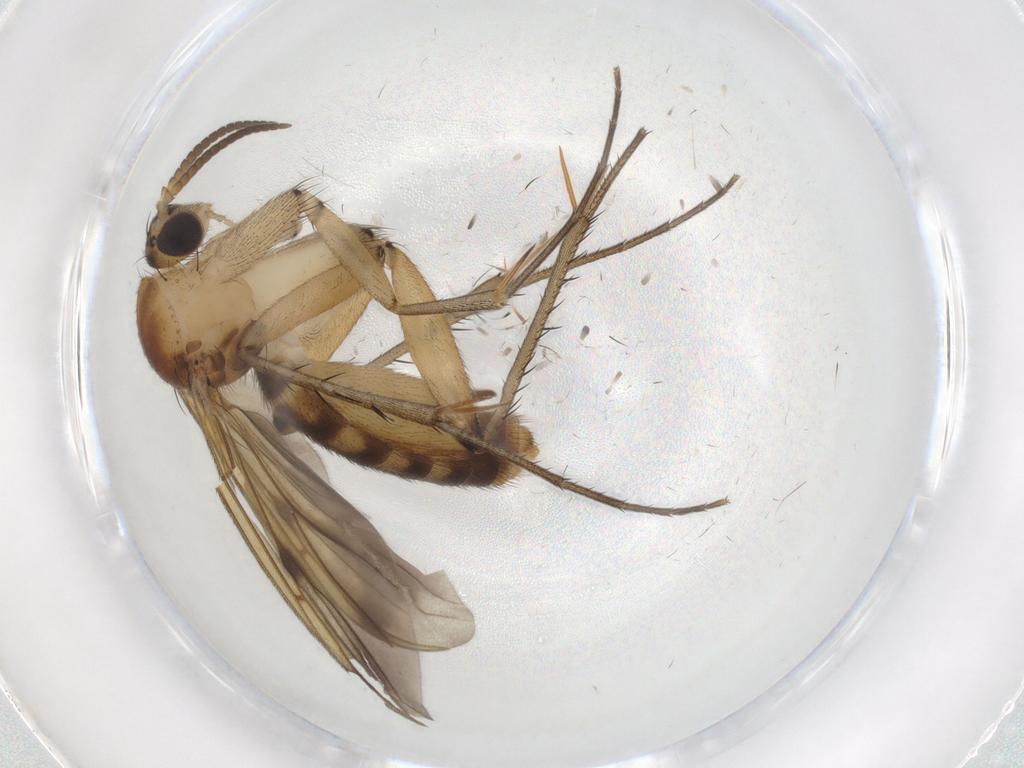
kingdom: Animalia
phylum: Arthropoda
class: Insecta
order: Diptera
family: Mycetophilidae
